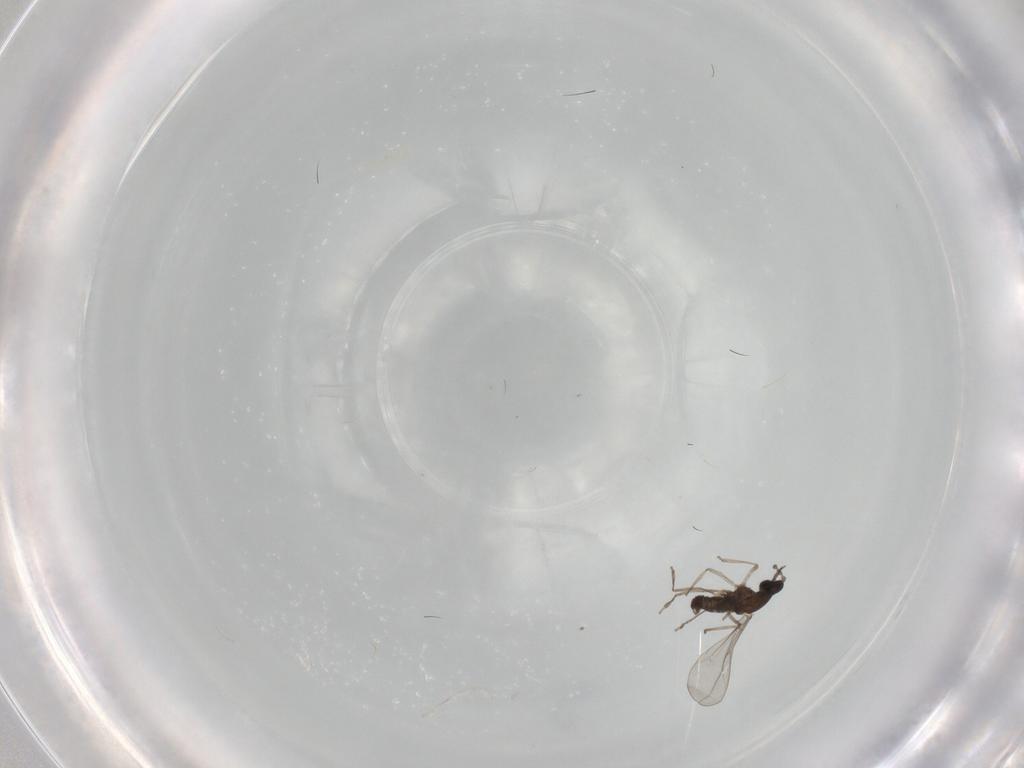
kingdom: Animalia
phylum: Arthropoda
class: Insecta
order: Diptera
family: Cecidomyiidae
